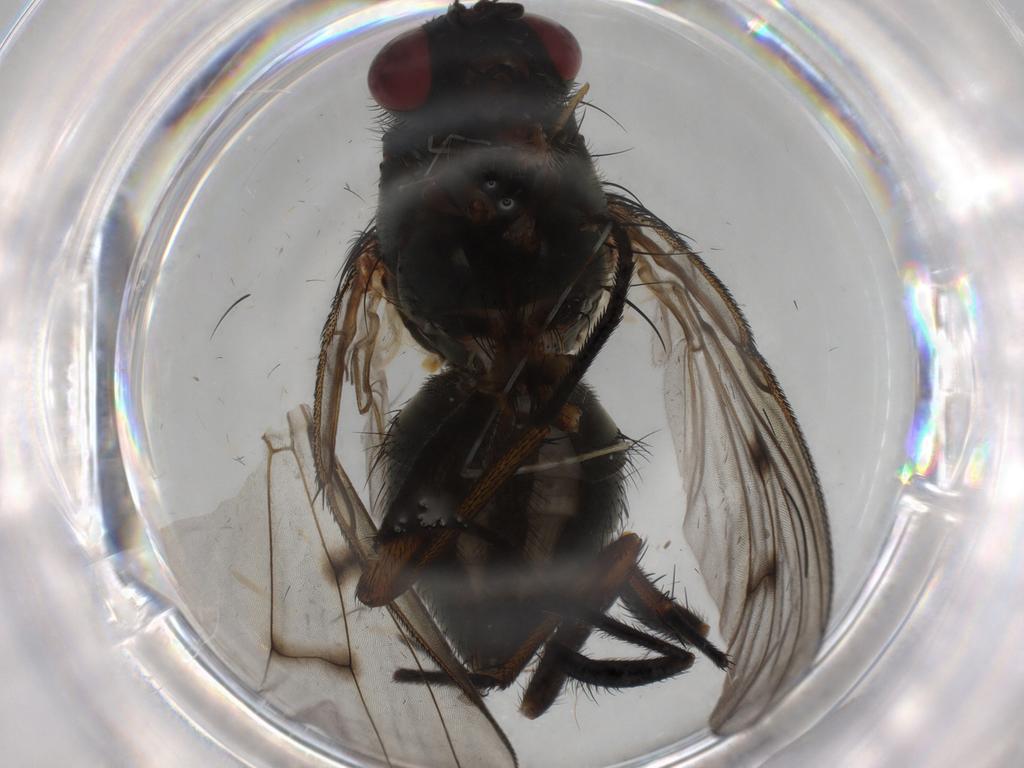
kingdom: Animalia
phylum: Arthropoda
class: Insecta
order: Diptera
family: Muscidae
